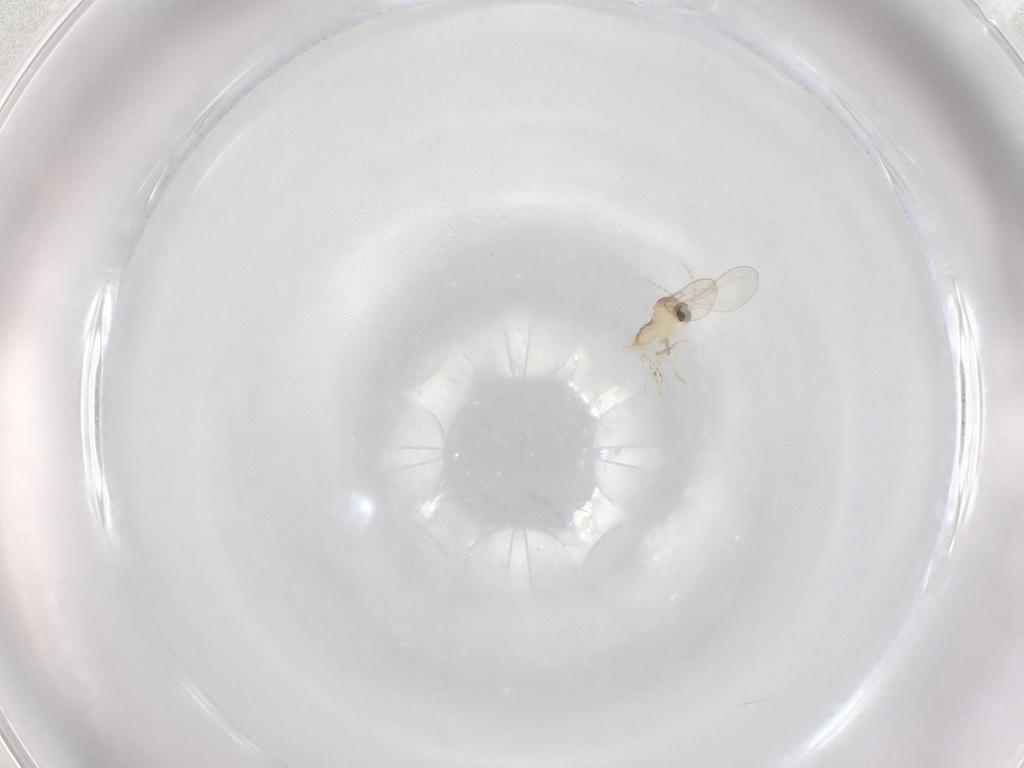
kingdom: Animalia
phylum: Arthropoda
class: Insecta
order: Diptera
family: Cecidomyiidae
